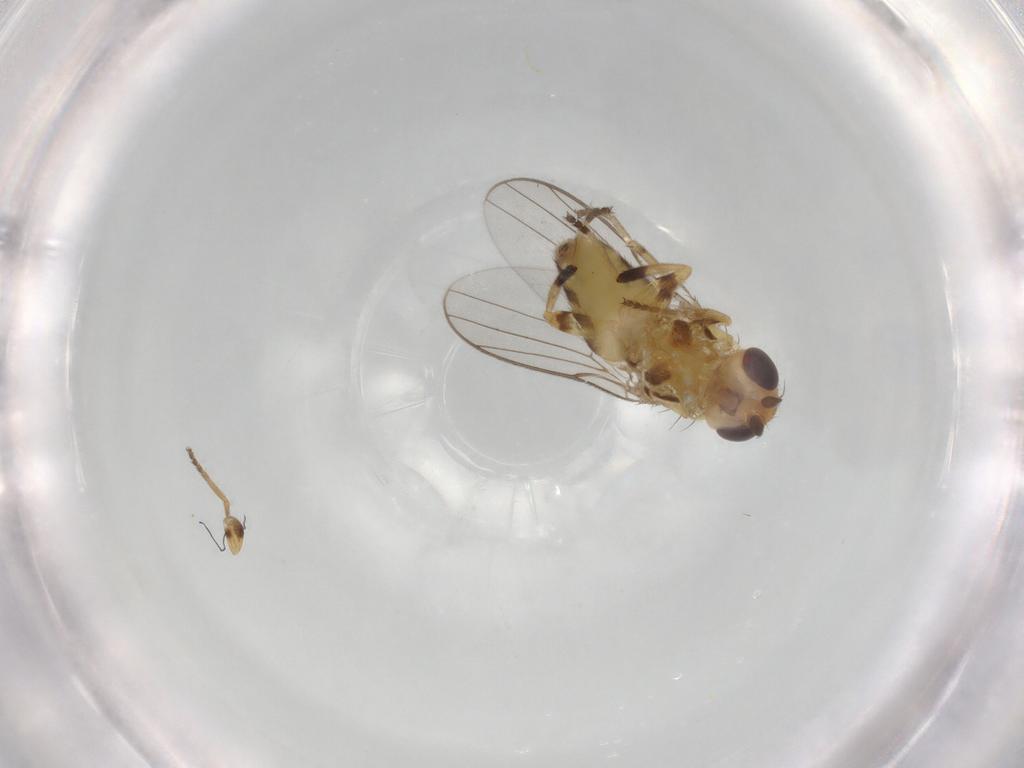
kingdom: Animalia
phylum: Arthropoda
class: Insecta
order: Diptera
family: Chloropidae
